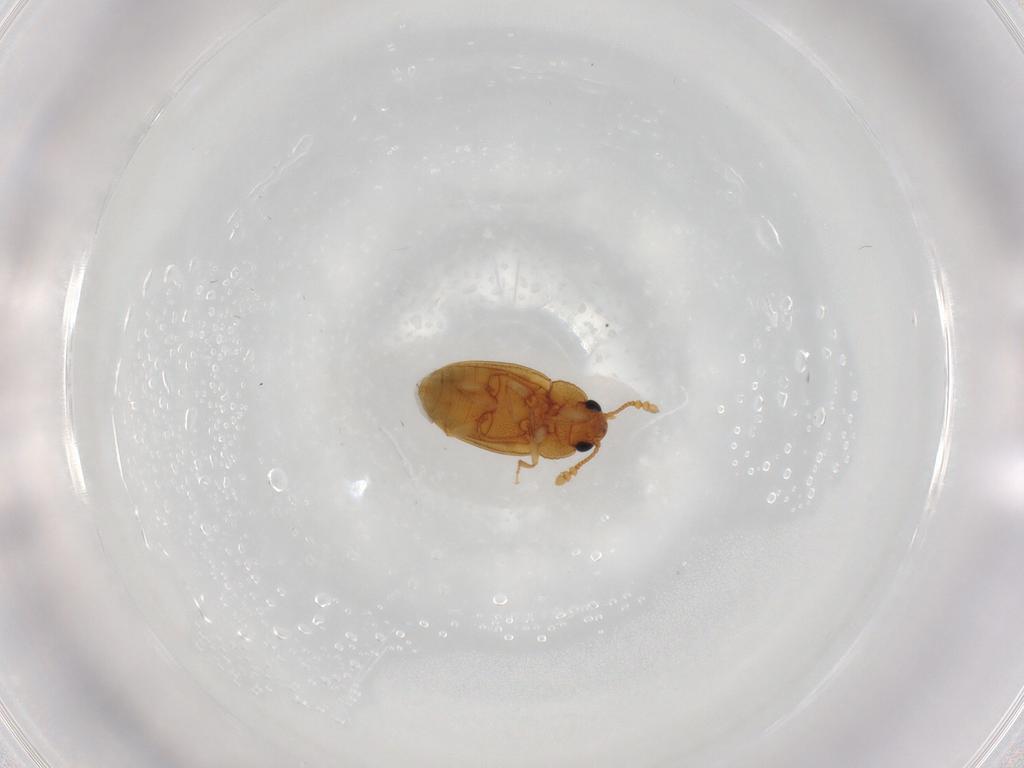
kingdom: Animalia
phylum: Arthropoda
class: Insecta
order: Coleoptera
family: Erotylidae
